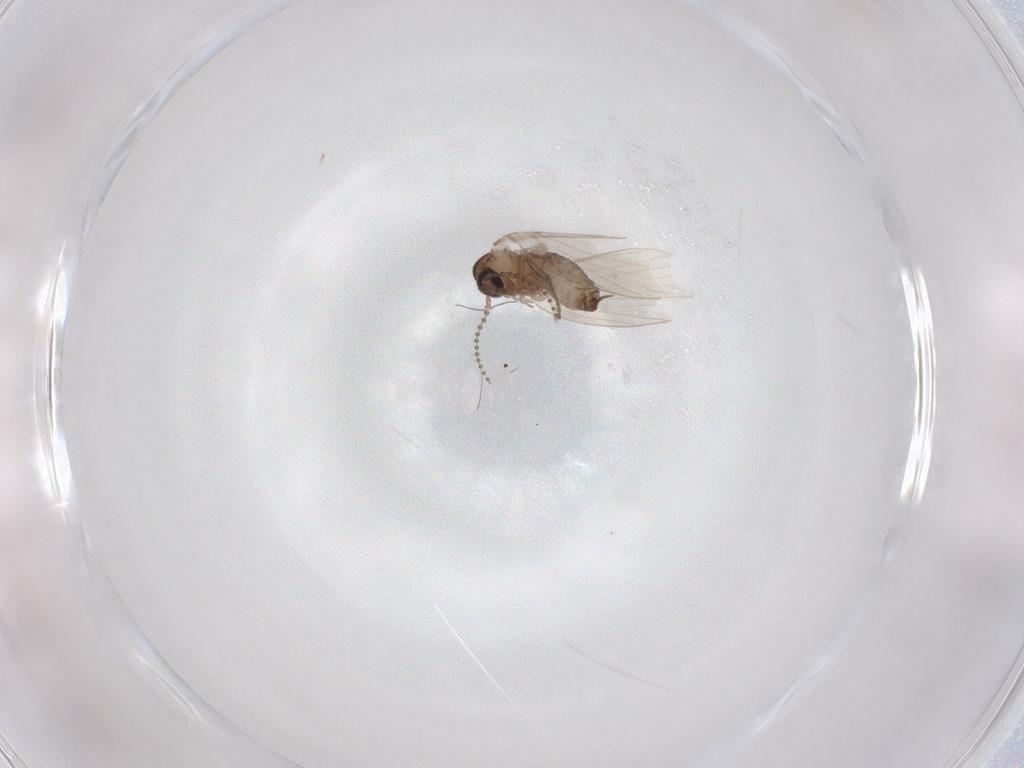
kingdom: Animalia
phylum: Arthropoda
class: Insecta
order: Diptera
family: Psychodidae
